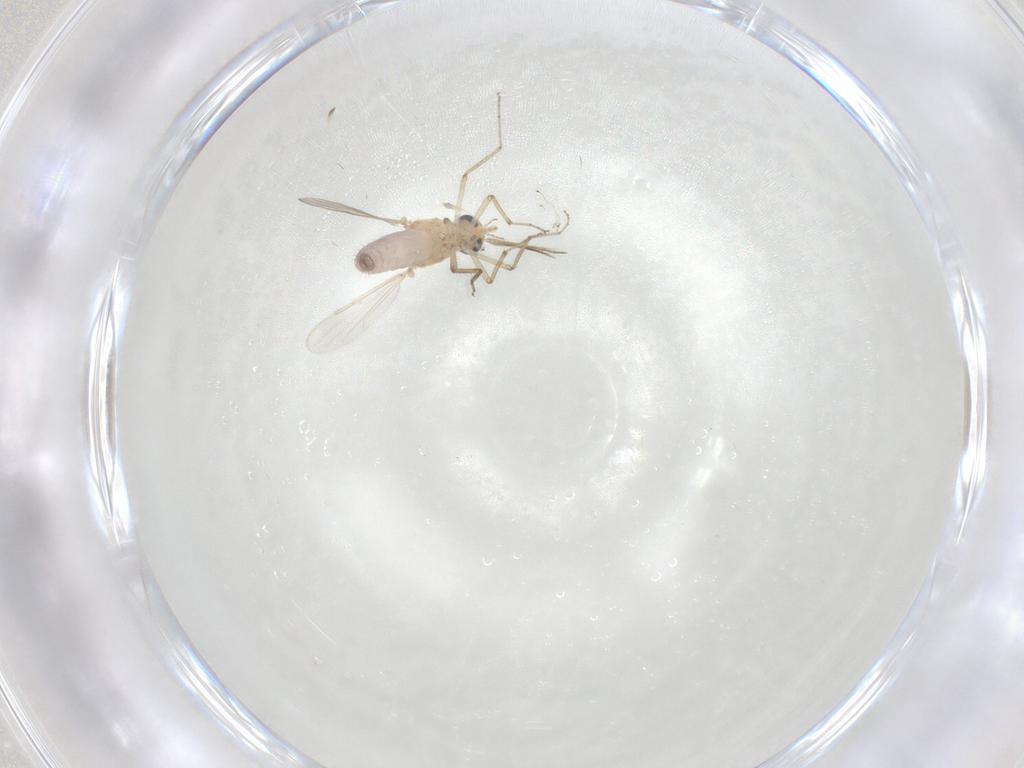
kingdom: Animalia
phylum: Arthropoda
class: Insecta
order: Diptera
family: Ceratopogonidae
